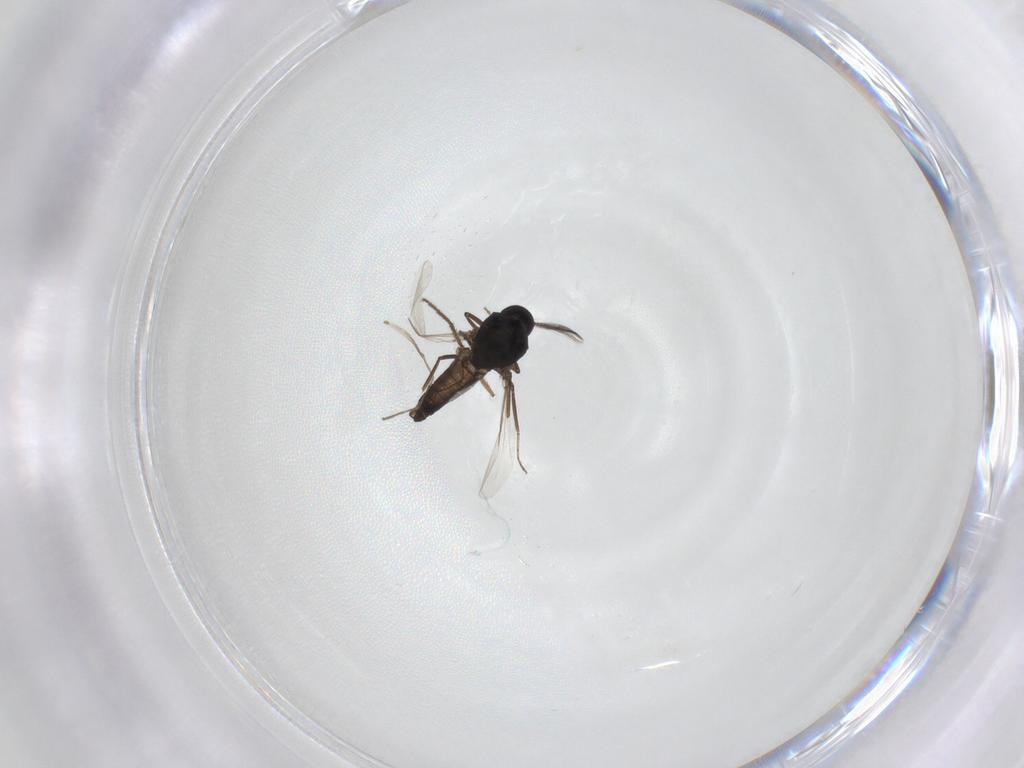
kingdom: Animalia
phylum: Arthropoda
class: Insecta
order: Diptera
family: Ceratopogonidae
